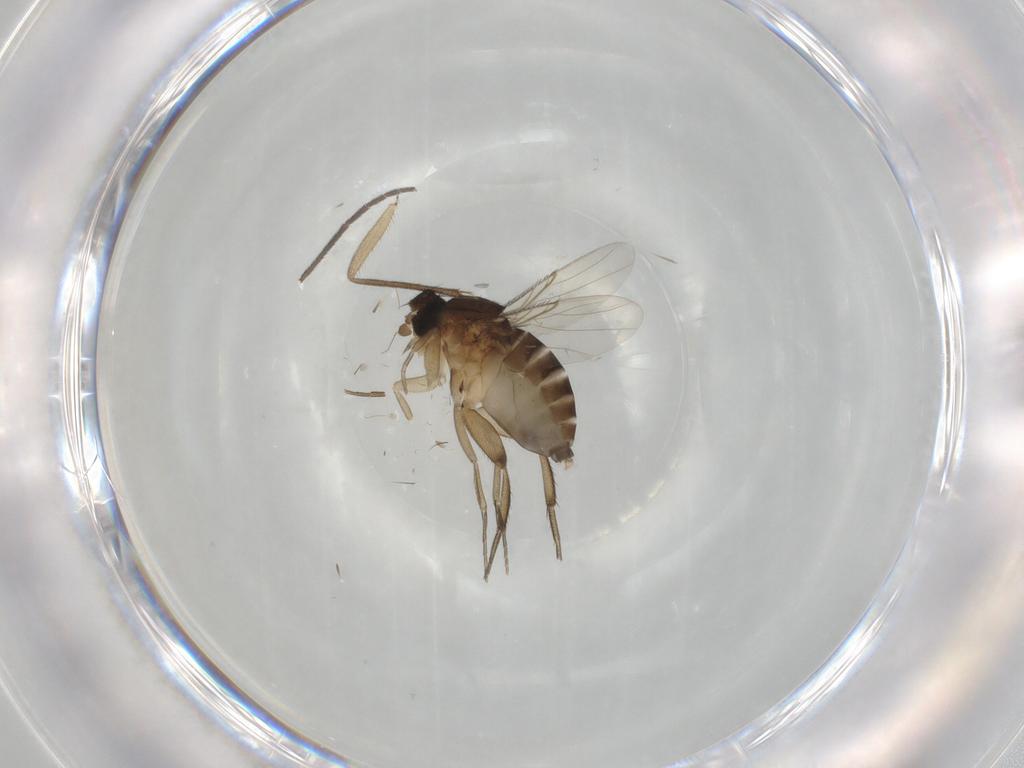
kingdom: Animalia
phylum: Arthropoda
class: Insecta
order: Diptera
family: Phoridae
